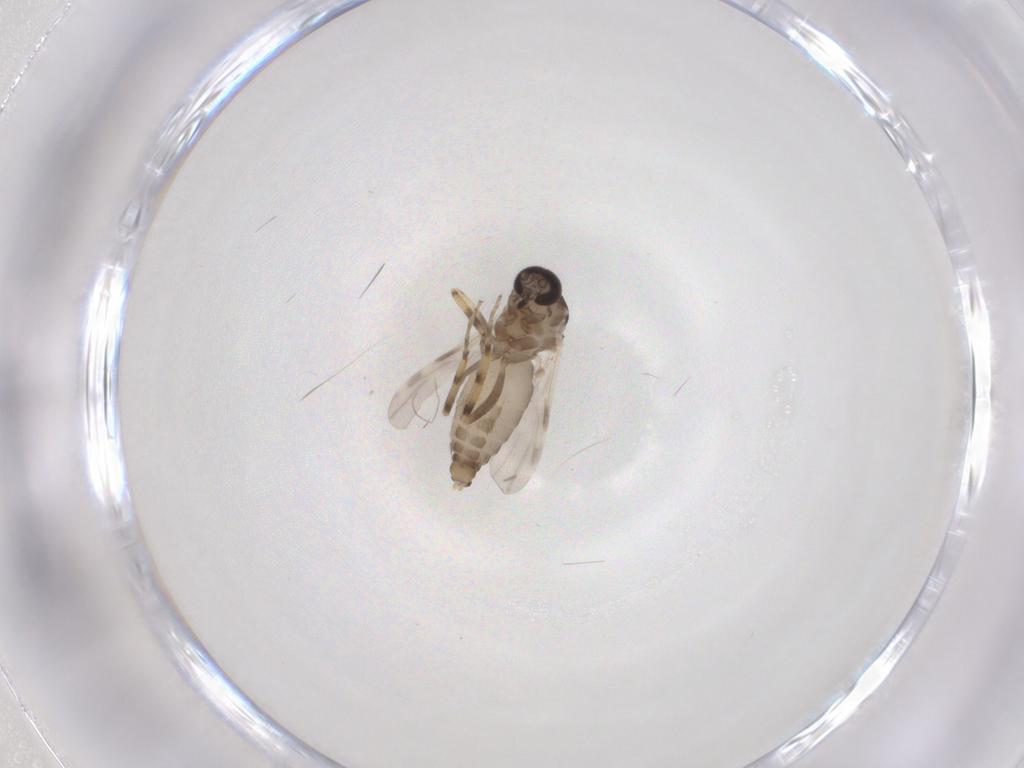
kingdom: Animalia
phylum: Arthropoda
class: Insecta
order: Diptera
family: Ceratopogonidae
